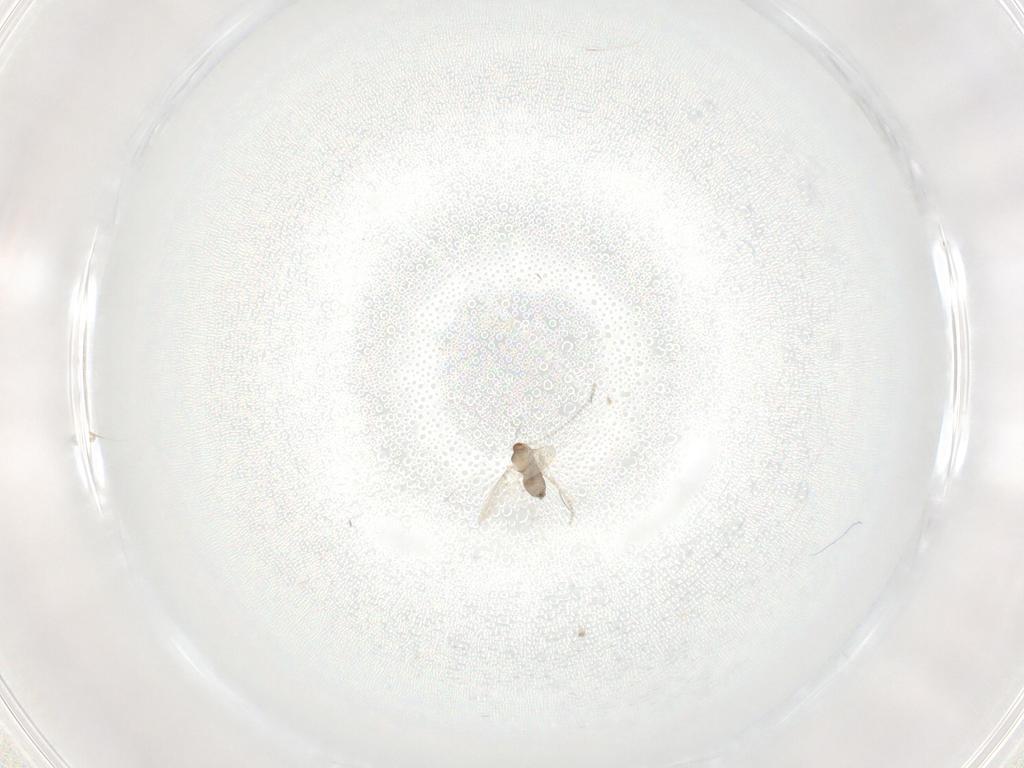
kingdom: Animalia
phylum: Arthropoda
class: Insecta
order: Diptera
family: Cecidomyiidae
